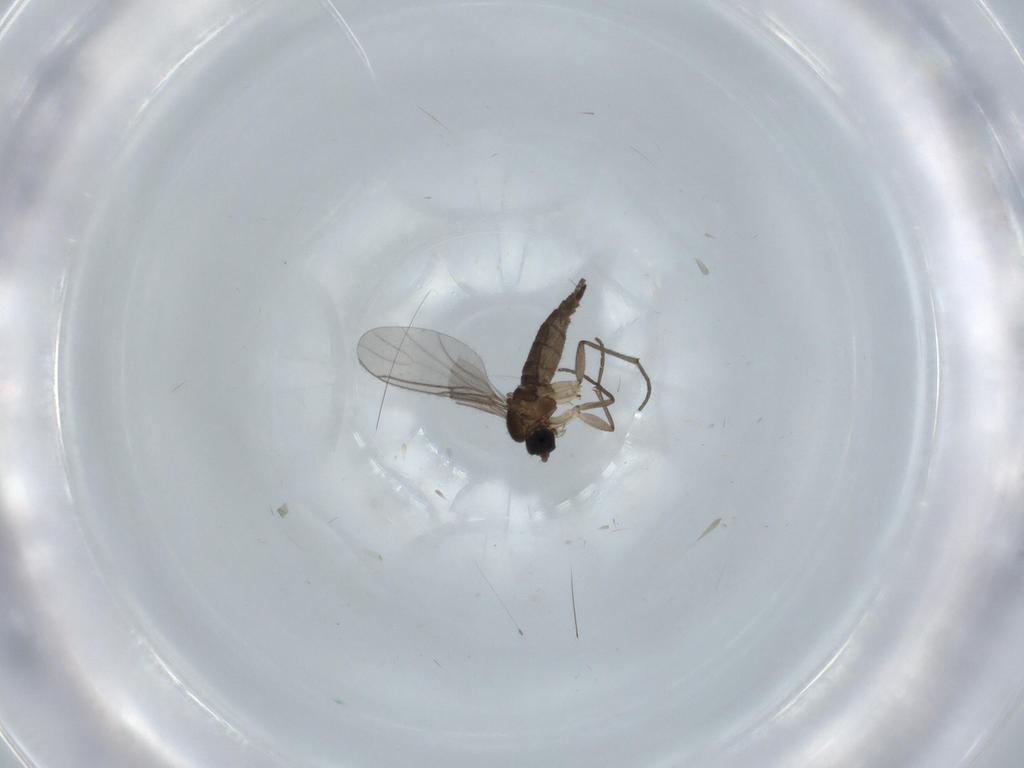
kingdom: Animalia
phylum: Arthropoda
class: Insecta
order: Diptera
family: Sciaridae
